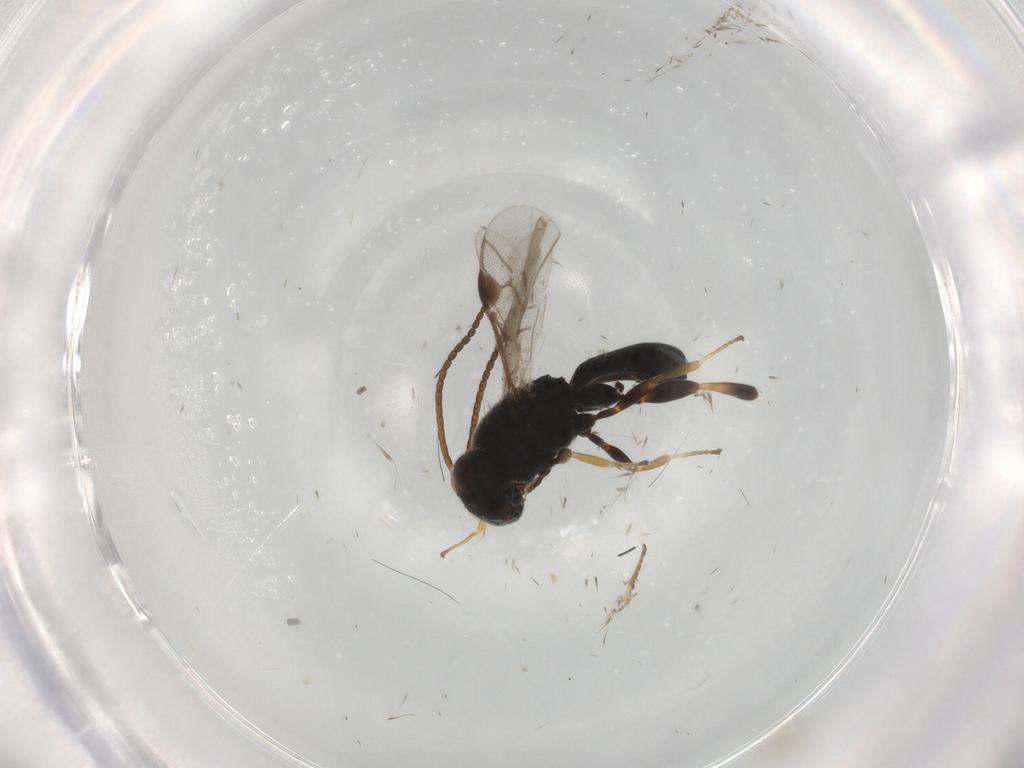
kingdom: Animalia
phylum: Arthropoda
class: Insecta
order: Hymenoptera
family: Braconidae
